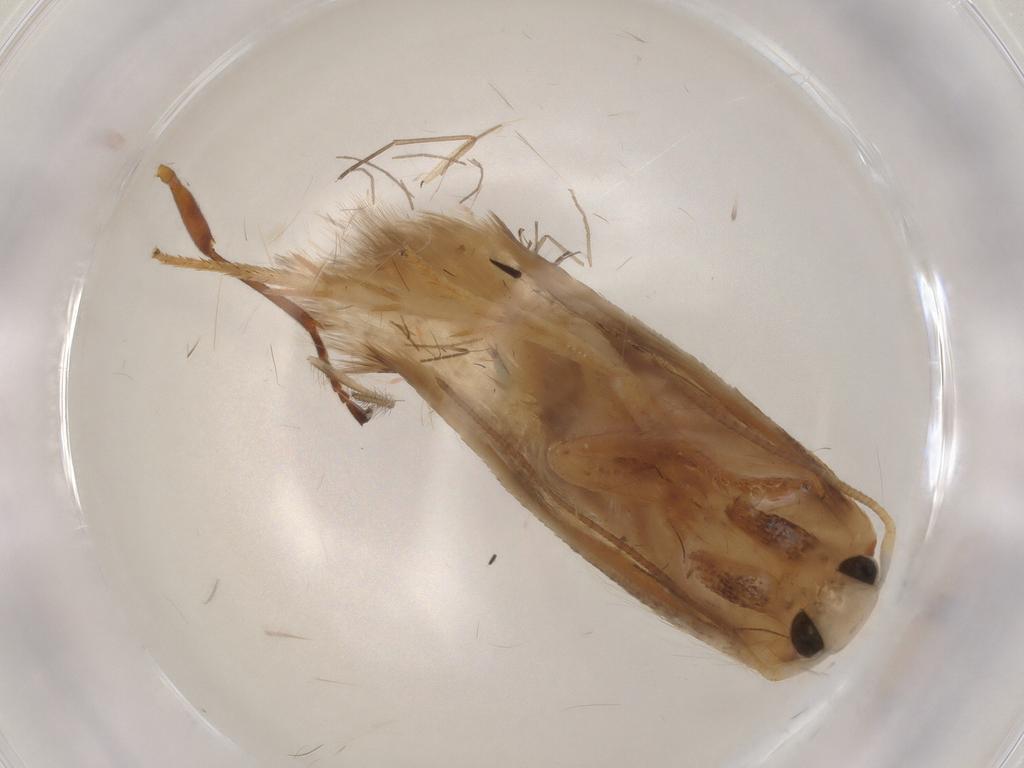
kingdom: Animalia
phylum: Arthropoda
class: Insecta
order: Lepidoptera
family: Geometridae
